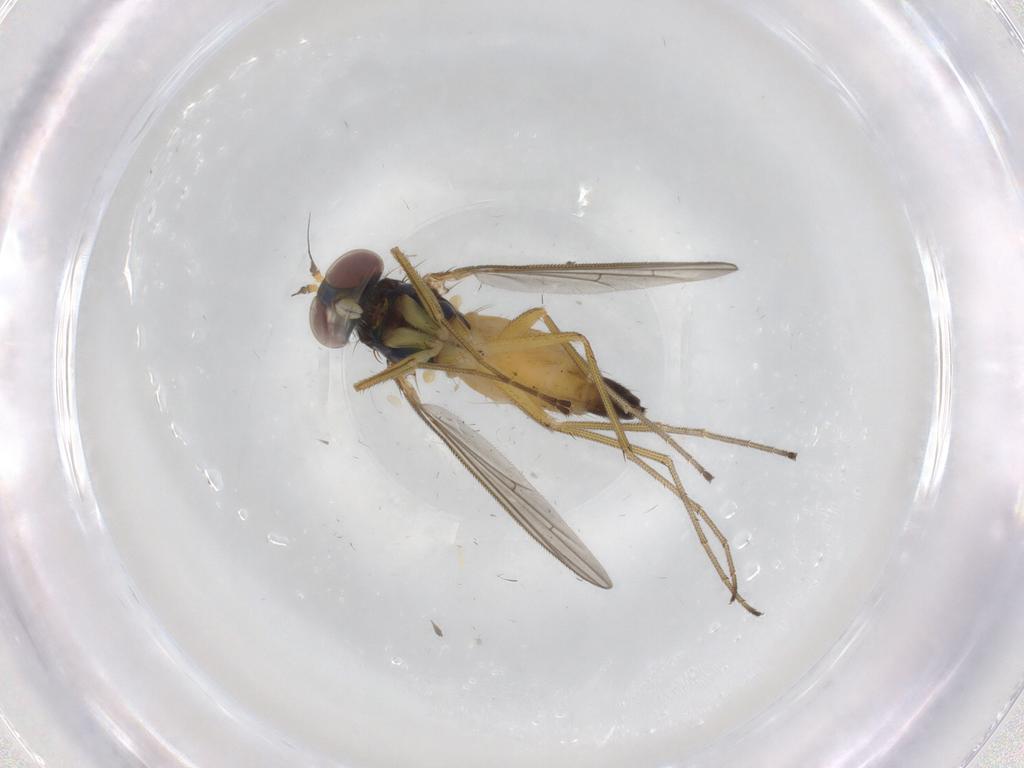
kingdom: Animalia
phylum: Arthropoda
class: Insecta
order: Diptera
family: Dolichopodidae
